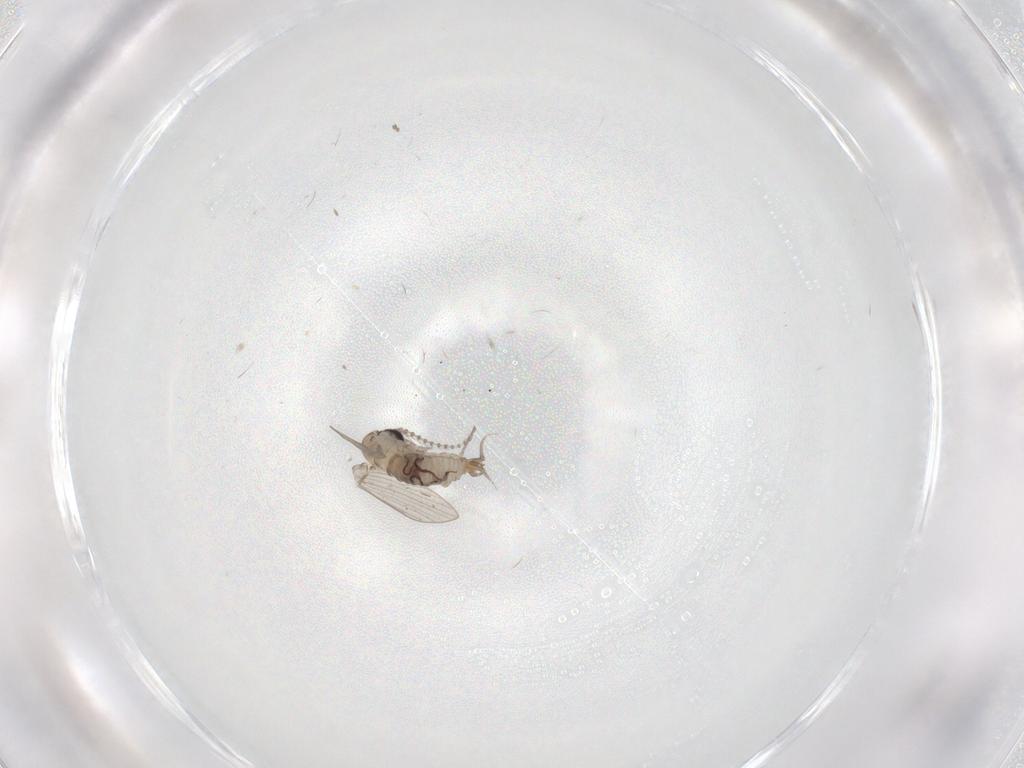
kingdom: Animalia
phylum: Arthropoda
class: Insecta
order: Diptera
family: Psychodidae
